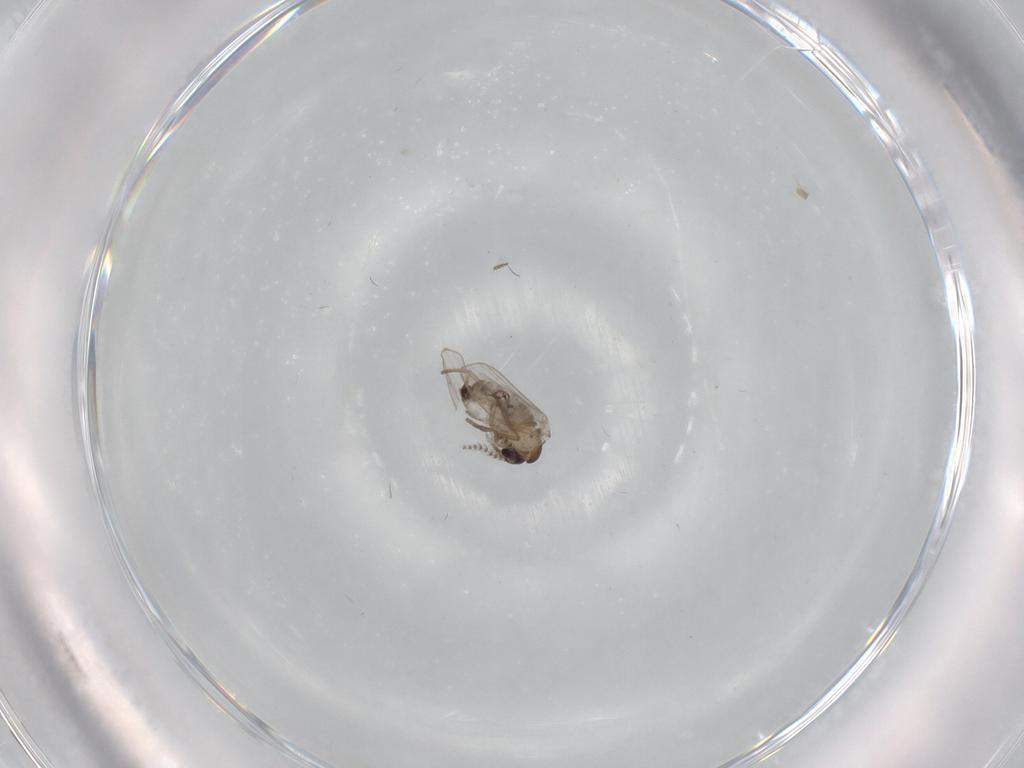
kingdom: Animalia
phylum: Arthropoda
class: Insecta
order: Diptera
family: Psychodidae
